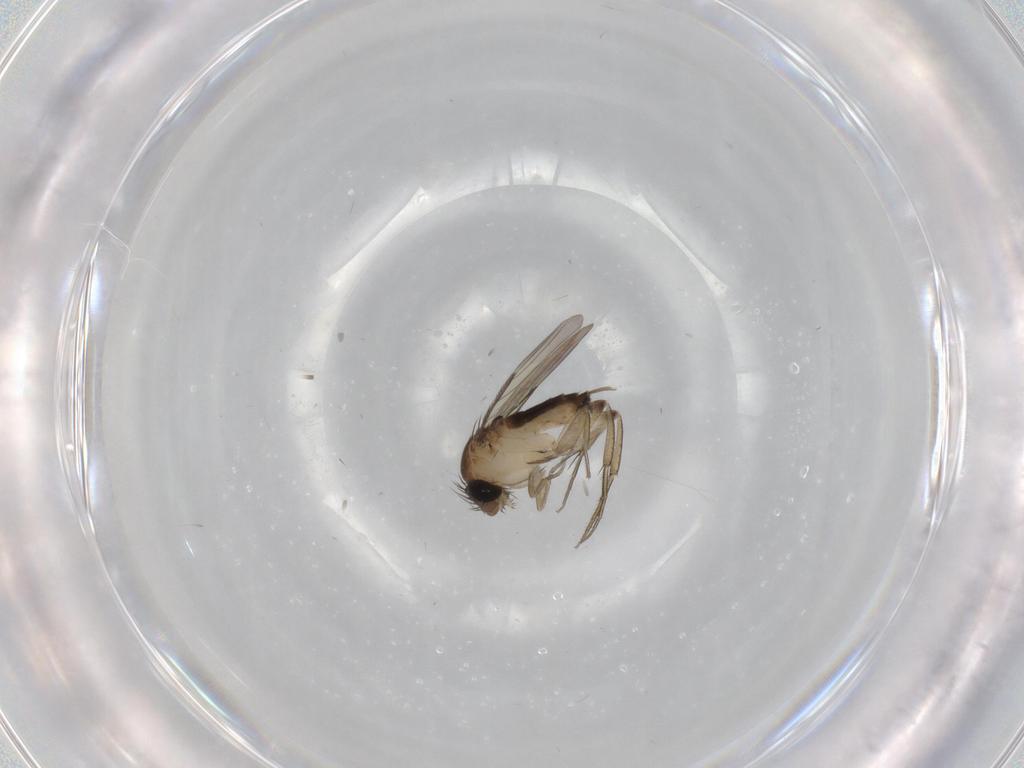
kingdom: Animalia
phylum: Arthropoda
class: Insecta
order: Diptera
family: Phoridae
